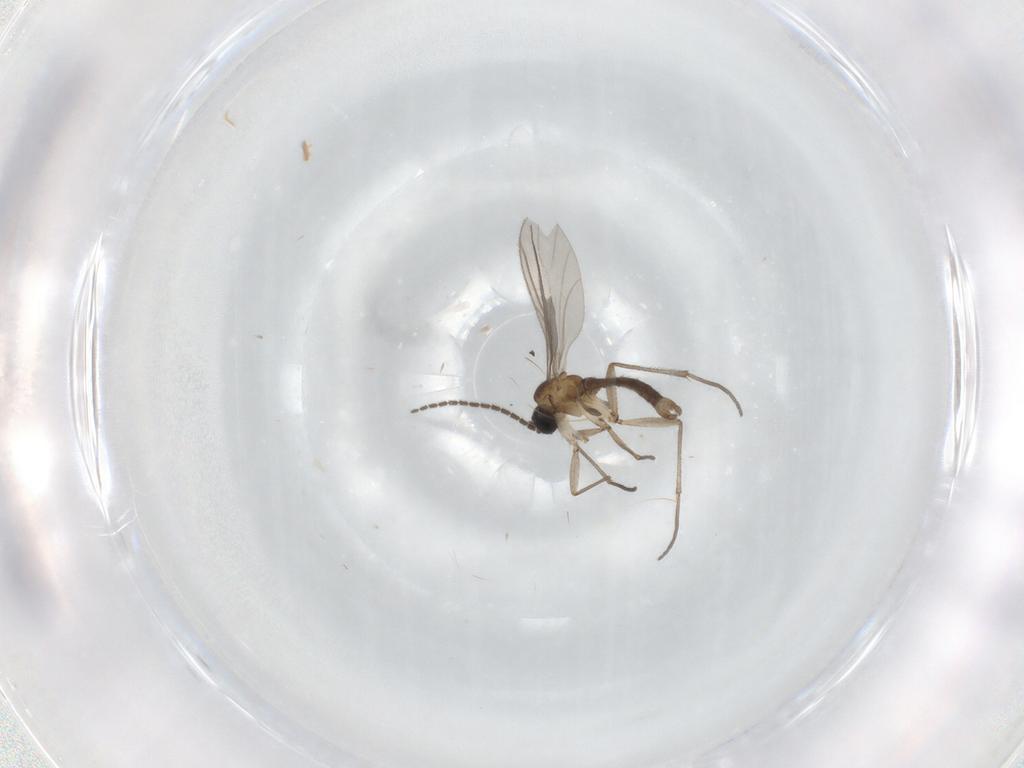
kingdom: Animalia
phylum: Arthropoda
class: Insecta
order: Diptera
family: Sciaridae
